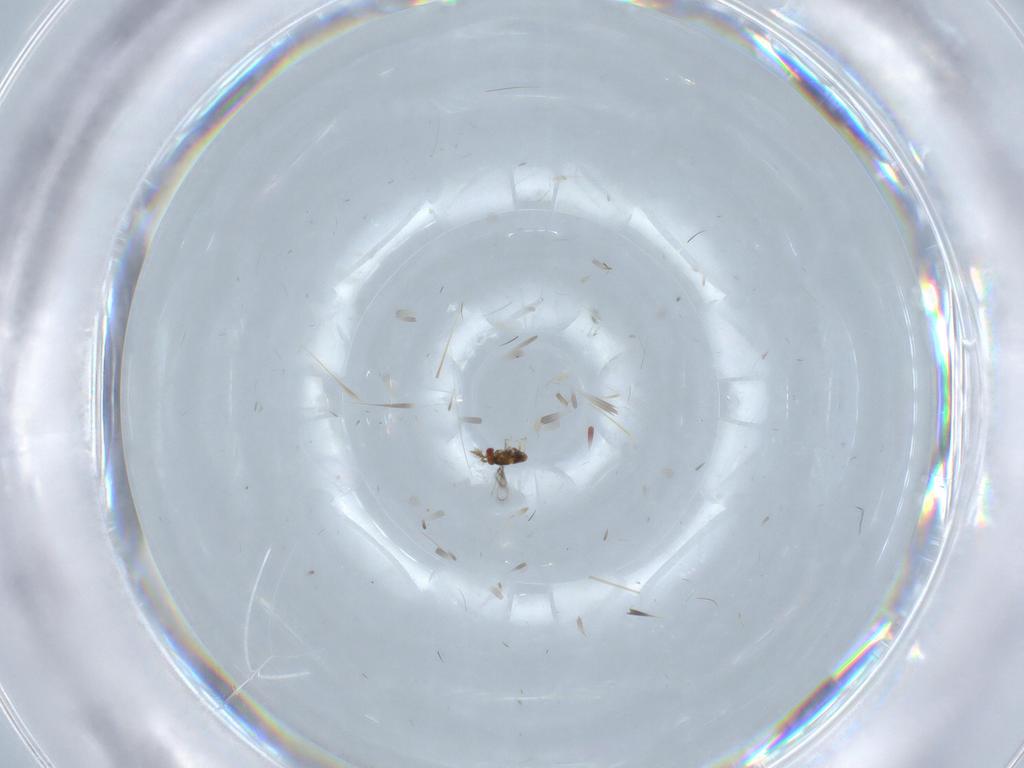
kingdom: Animalia
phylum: Arthropoda
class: Insecta
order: Hymenoptera
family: Trichogrammatidae
